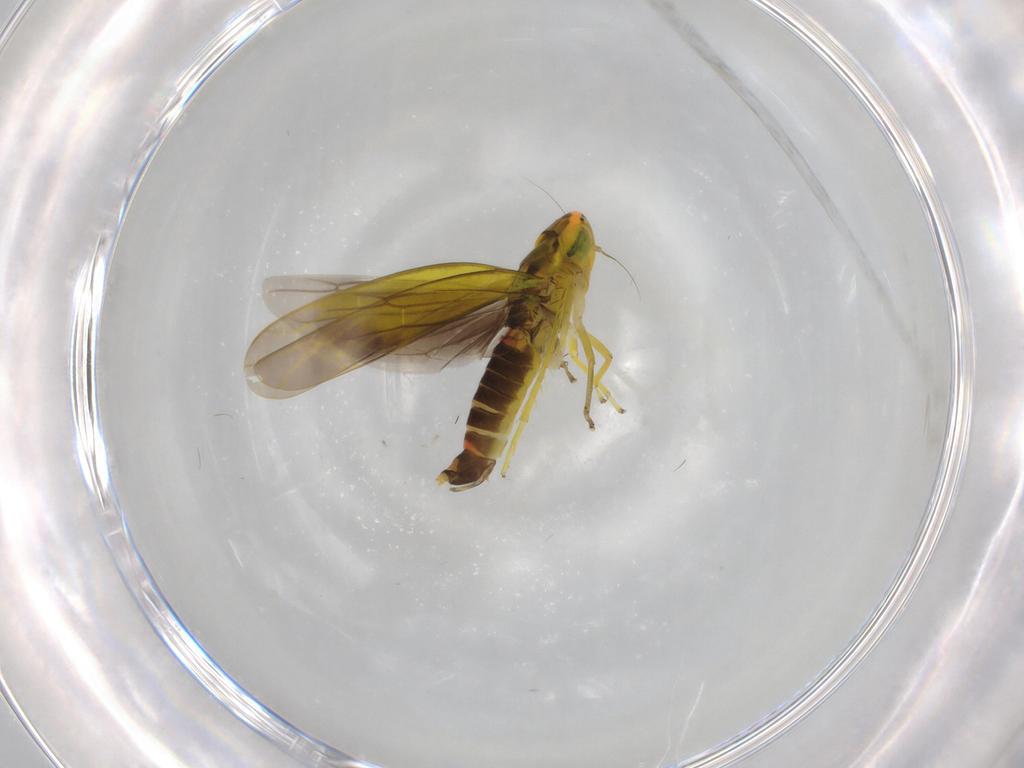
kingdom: Animalia
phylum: Arthropoda
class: Insecta
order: Hemiptera
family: Cicadellidae
